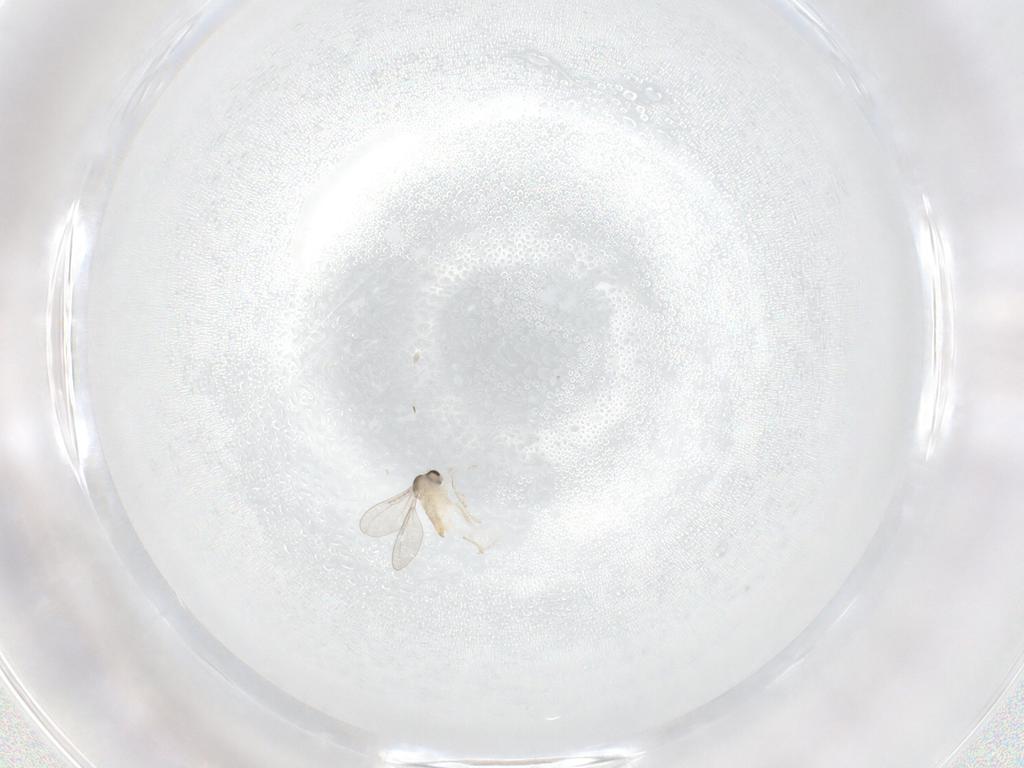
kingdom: Animalia
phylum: Arthropoda
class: Insecta
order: Diptera
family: Cecidomyiidae
